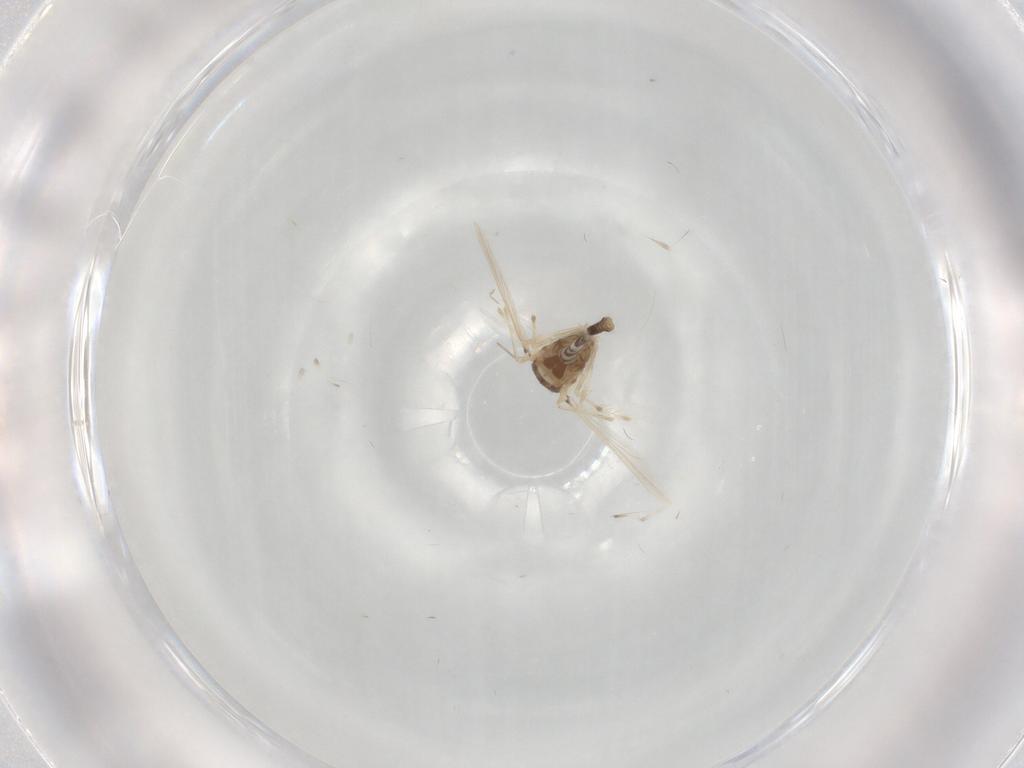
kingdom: Animalia
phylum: Arthropoda
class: Insecta
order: Diptera
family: Chironomidae
